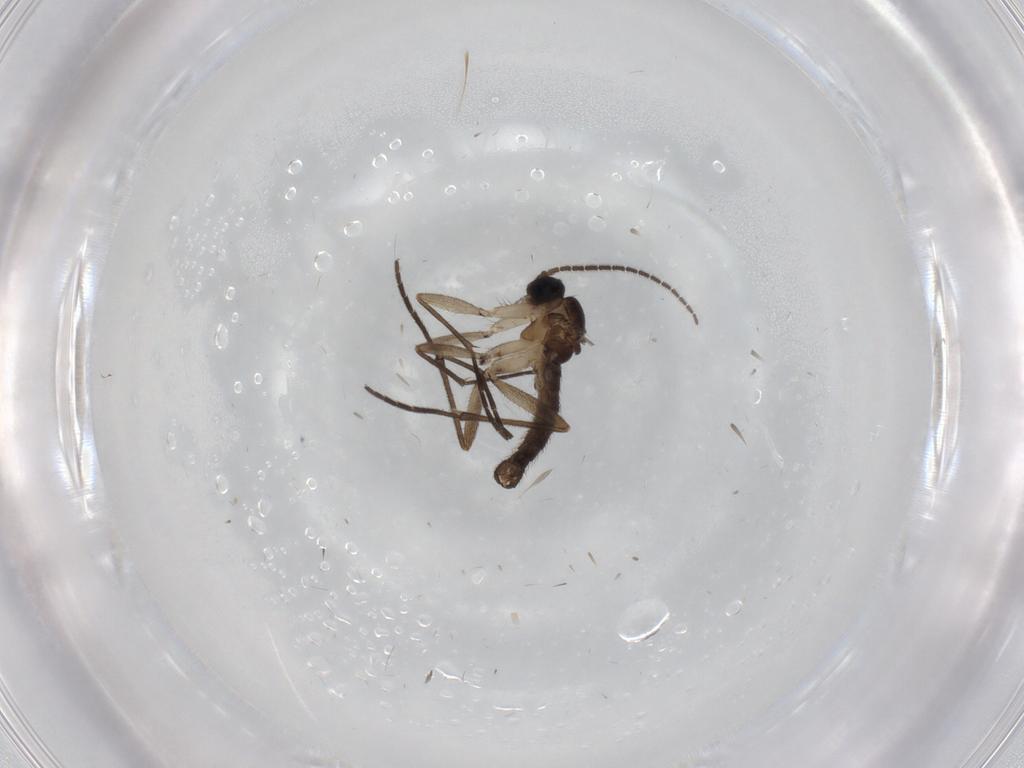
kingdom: Animalia
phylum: Arthropoda
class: Insecta
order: Diptera
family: Sciaridae
